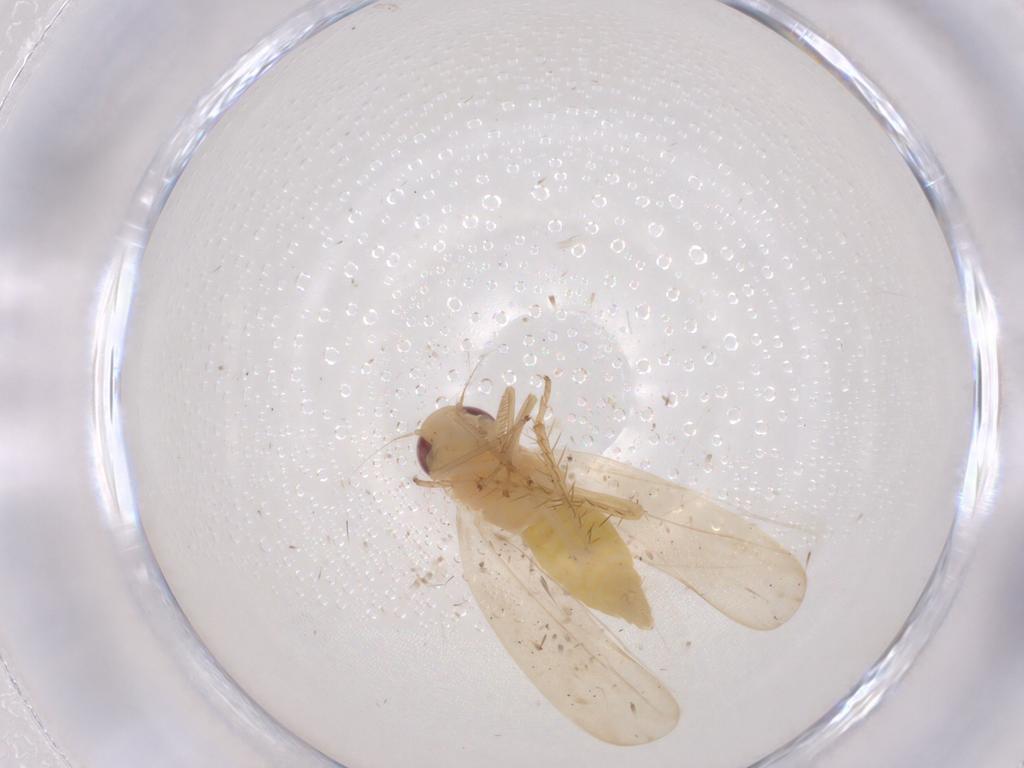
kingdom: Animalia
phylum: Arthropoda
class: Insecta
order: Hemiptera
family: Cicadellidae
